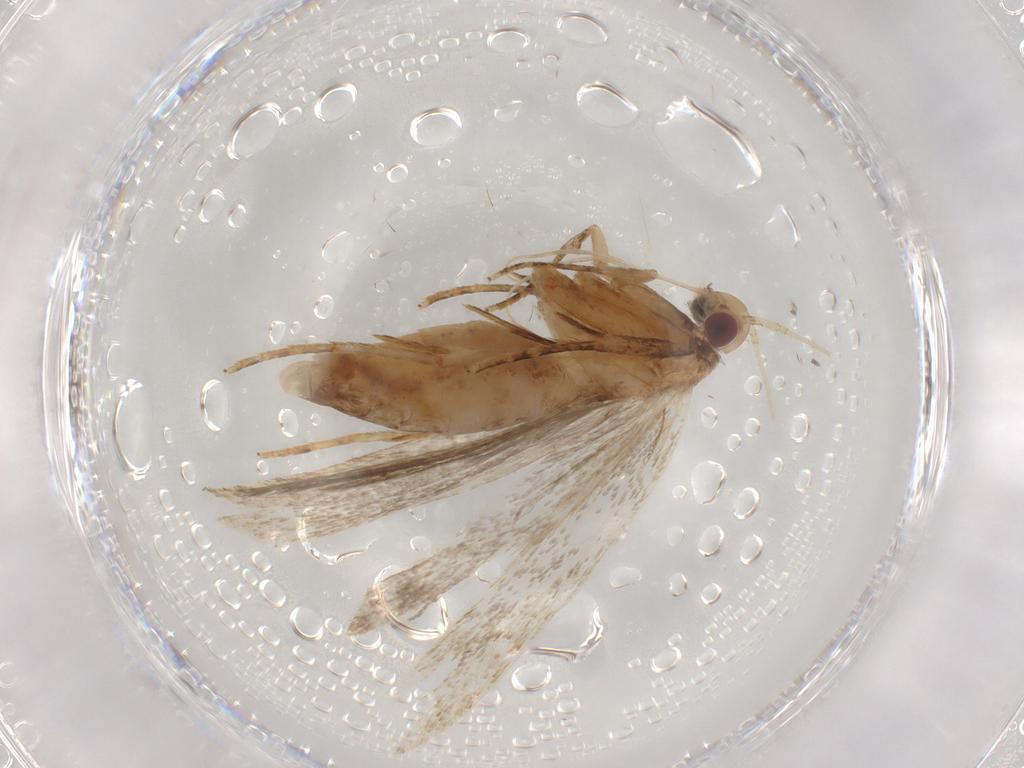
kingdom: Animalia
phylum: Arthropoda
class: Insecta
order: Lepidoptera
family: Gelechiidae
